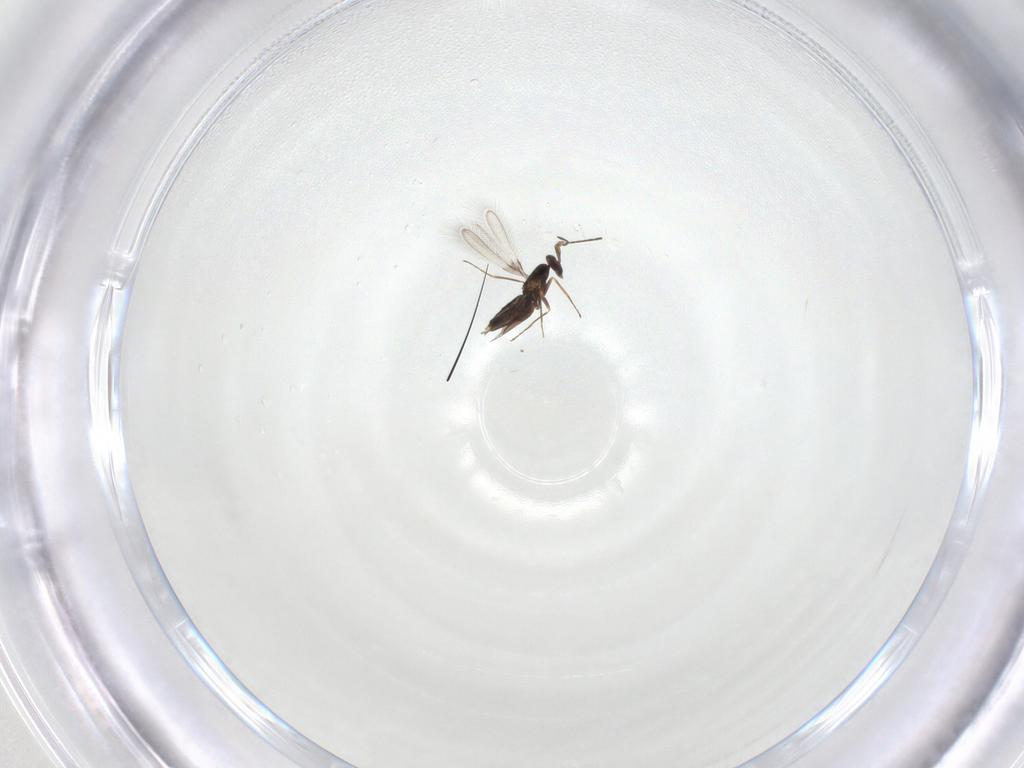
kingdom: Animalia
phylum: Arthropoda
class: Insecta
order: Hymenoptera
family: Mymaridae
